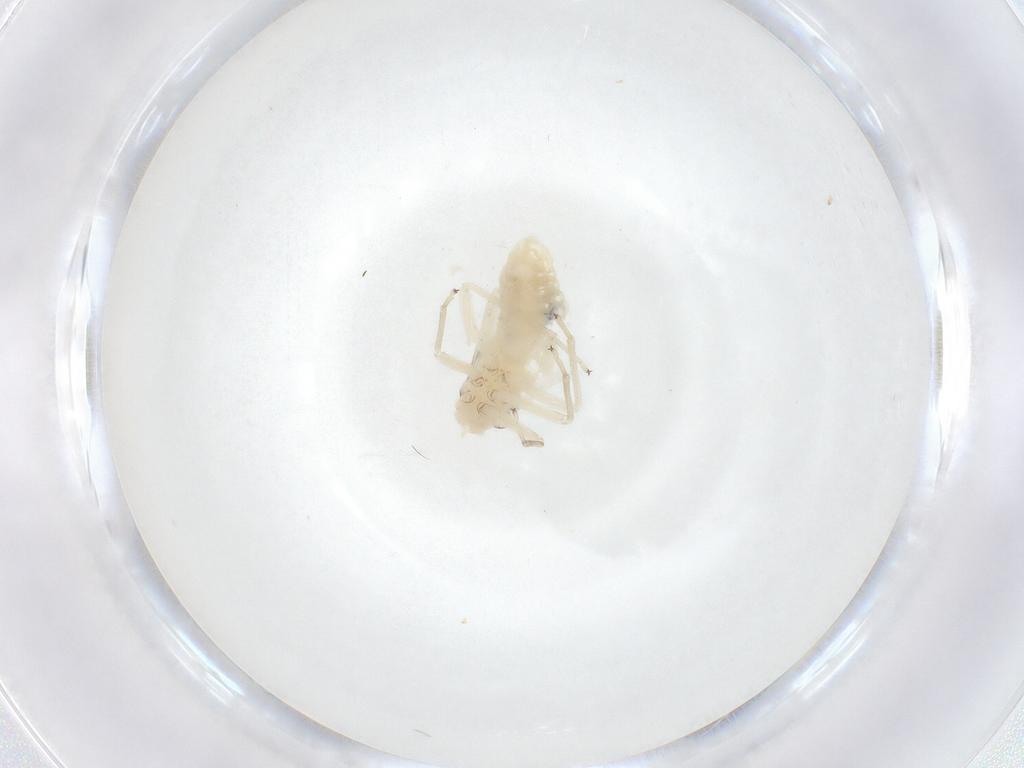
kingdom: Animalia
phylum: Arthropoda
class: Insecta
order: Psocodea
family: Caeciliusidae
